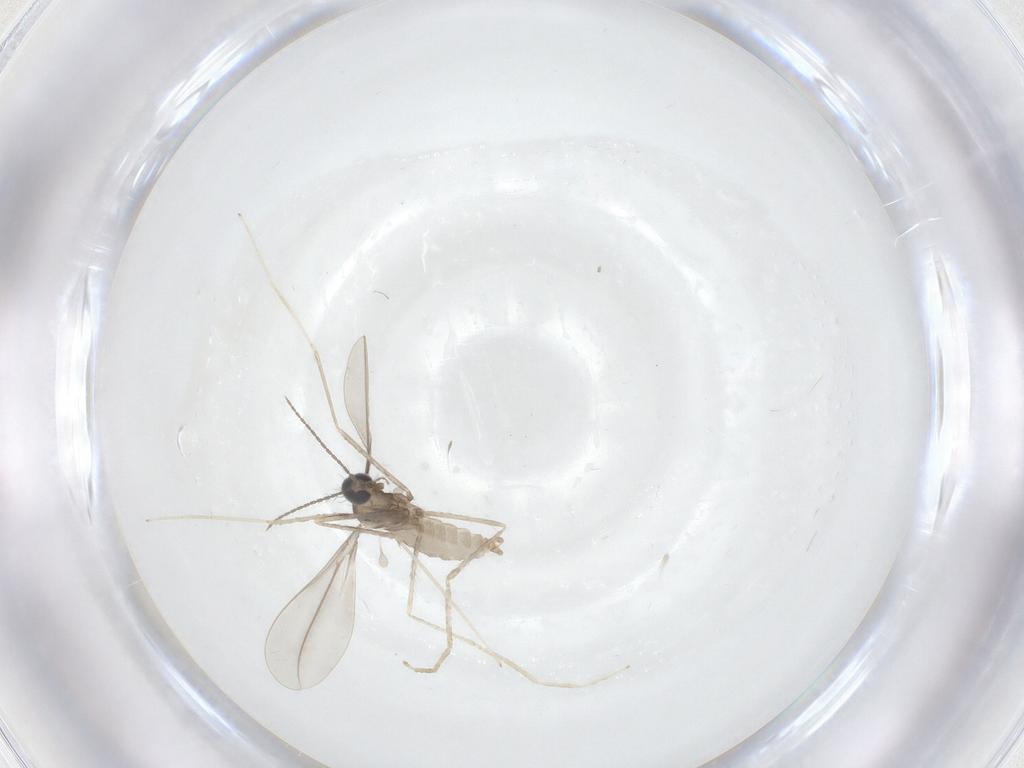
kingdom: Animalia
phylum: Arthropoda
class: Insecta
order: Diptera
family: Cecidomyiidae
